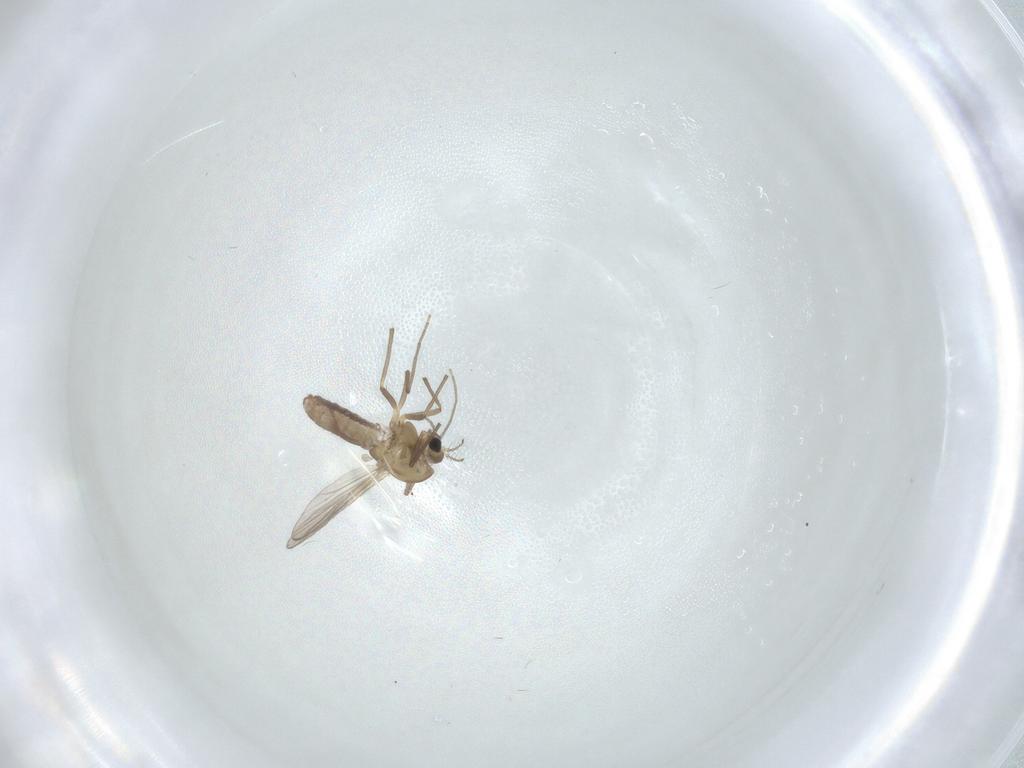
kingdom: Animalia
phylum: Arthropoda
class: Insecta
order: Diptera
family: Chironomidae
